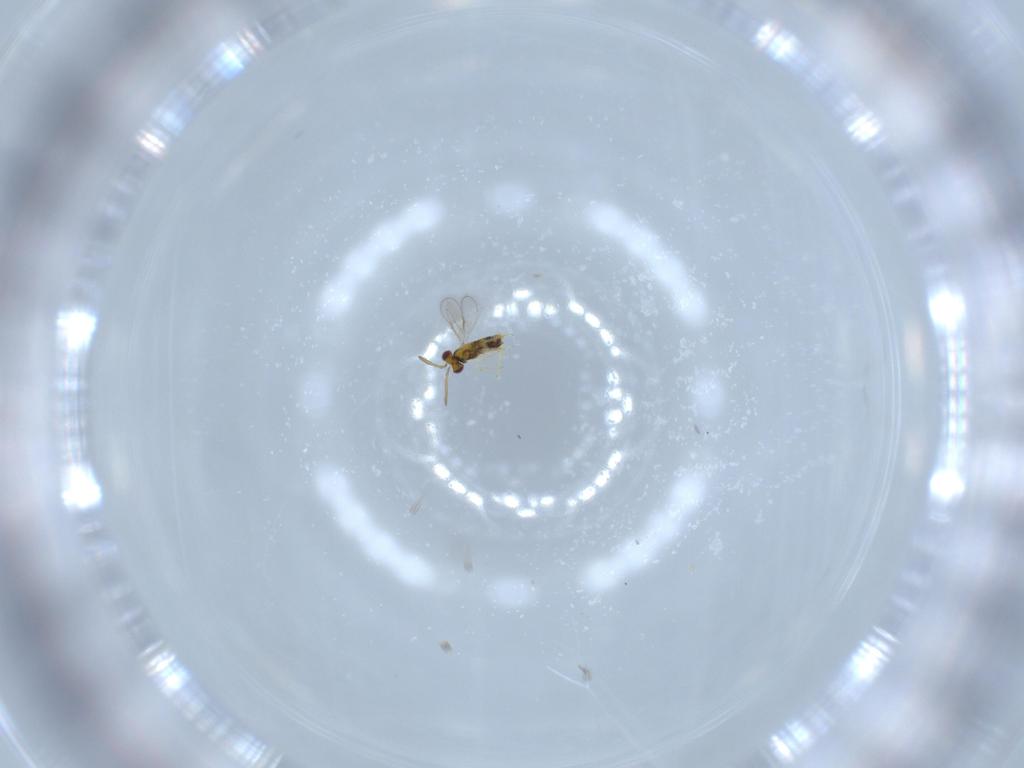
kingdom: Animalia
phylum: Arthropoda
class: Insecta
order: Hymenoptera
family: Aphelinidae
